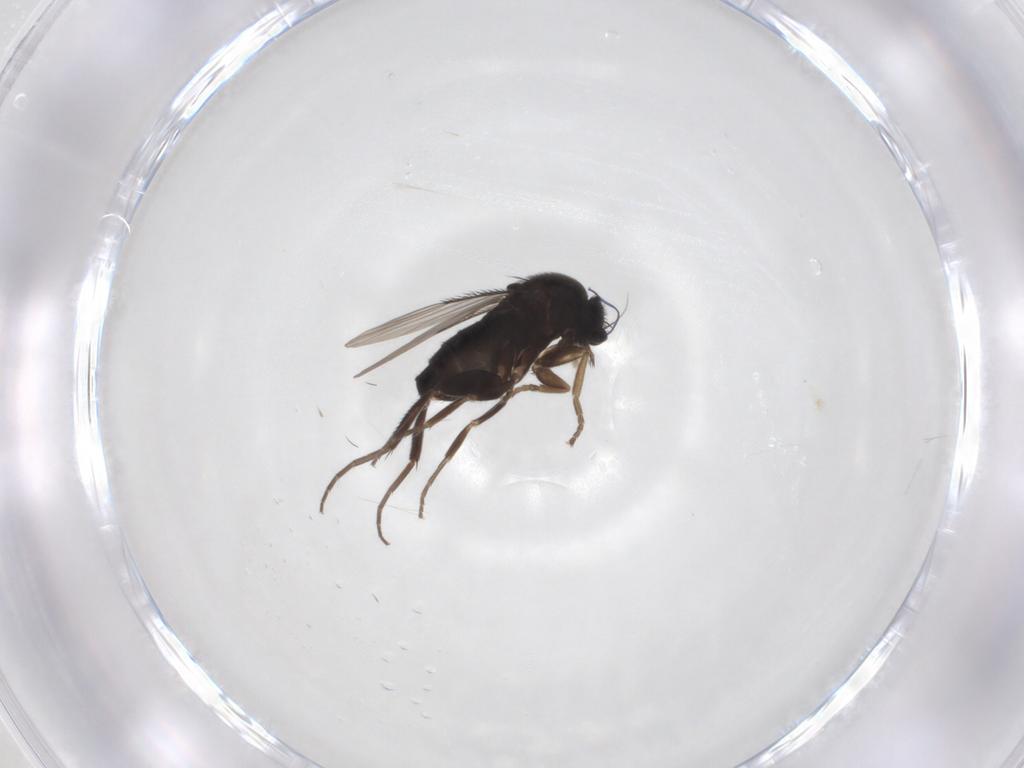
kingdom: Animalia
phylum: Arthropoda
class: Insecta
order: Diptera
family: Phoridae
